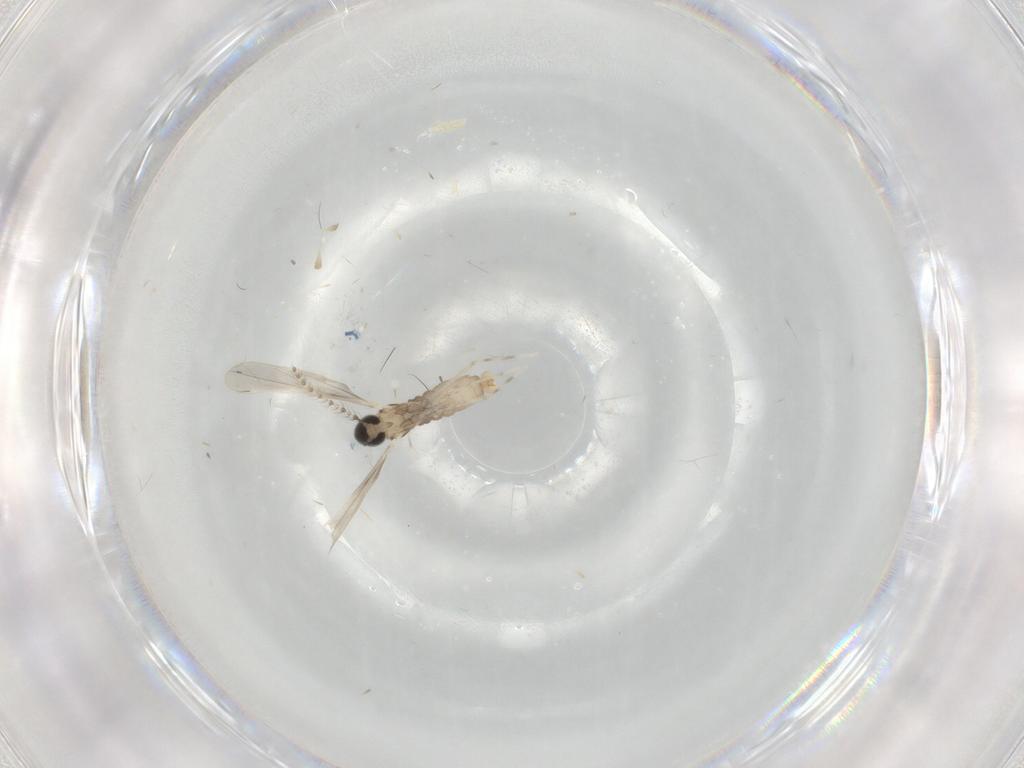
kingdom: Animalia
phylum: Arthropoda
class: Insecta
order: Diptera
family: Cecidomyiidae
